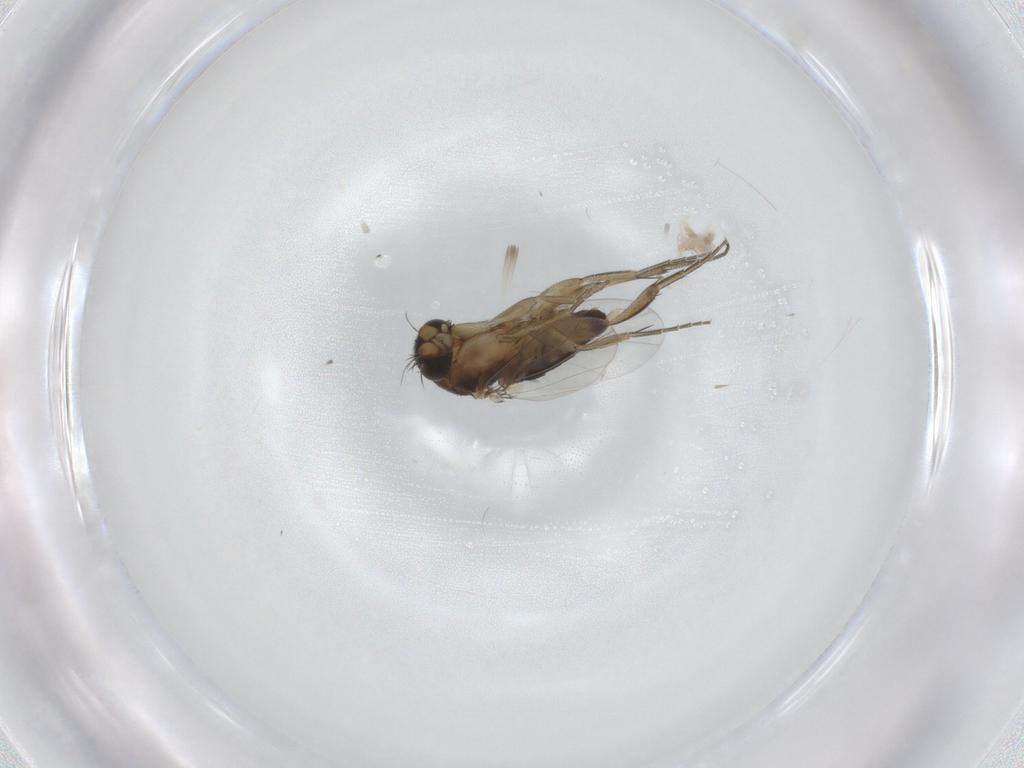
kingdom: Animalia
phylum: Arthropoda
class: Insecta
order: Diptera
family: Phoridae
